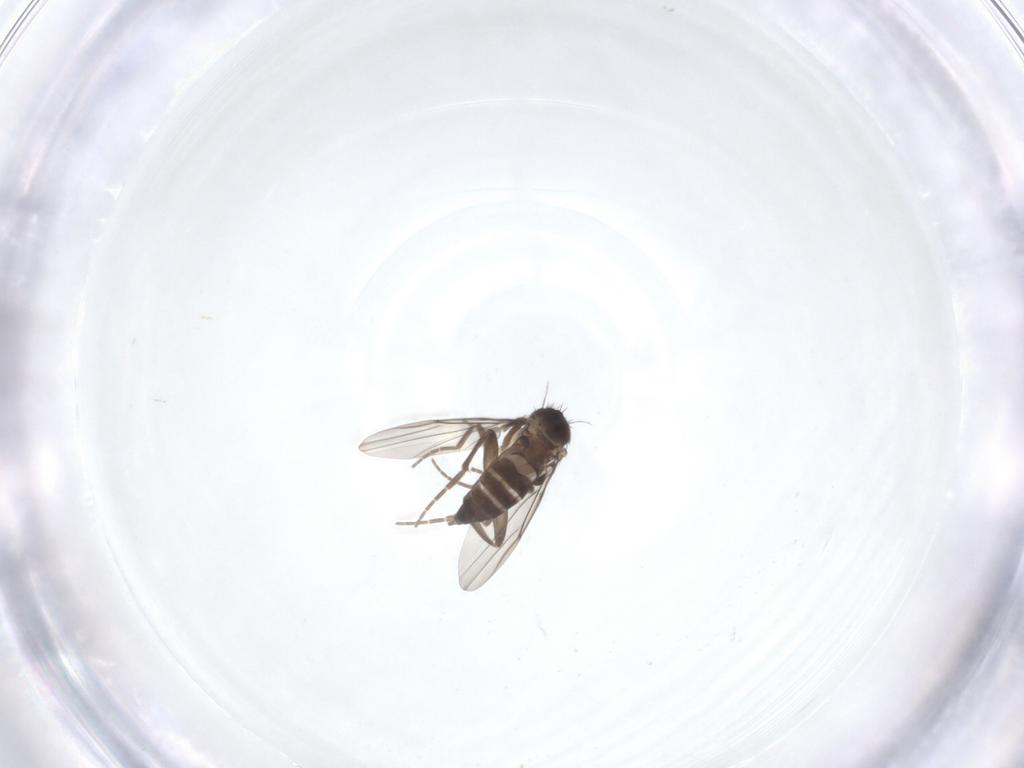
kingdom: Animalia
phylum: Arthropoda
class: Insecta
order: Diptera
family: Phoridae
